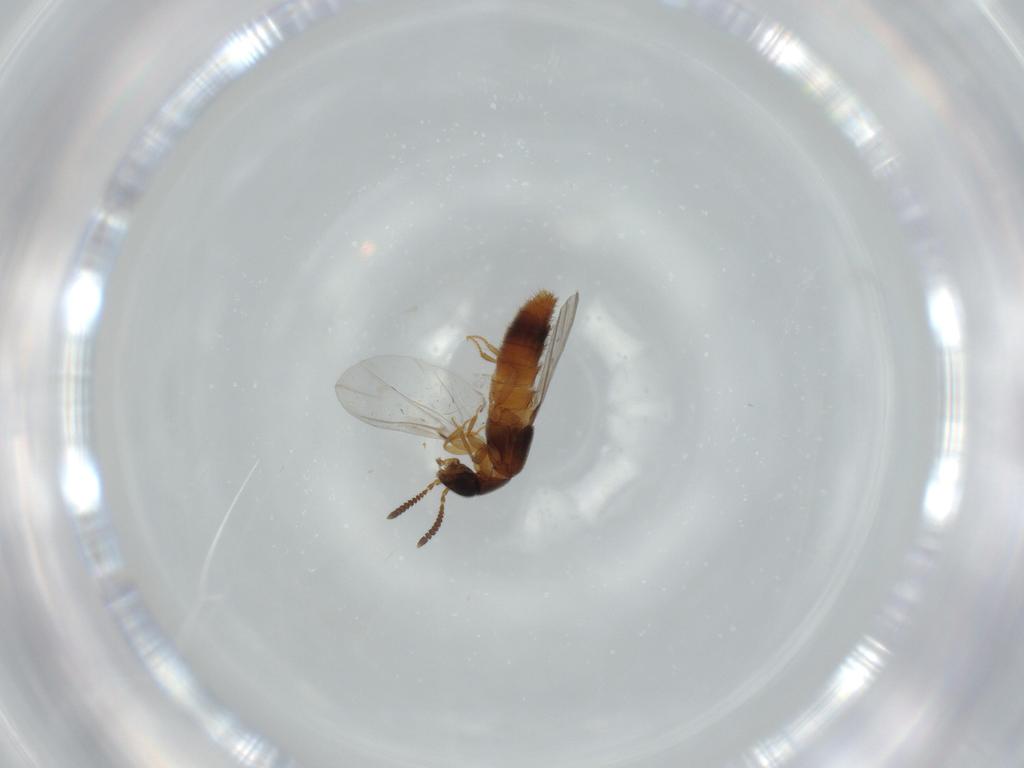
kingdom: Animalia
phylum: Arthropoda
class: Insecta
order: Coleoptera
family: Staphylinidae
